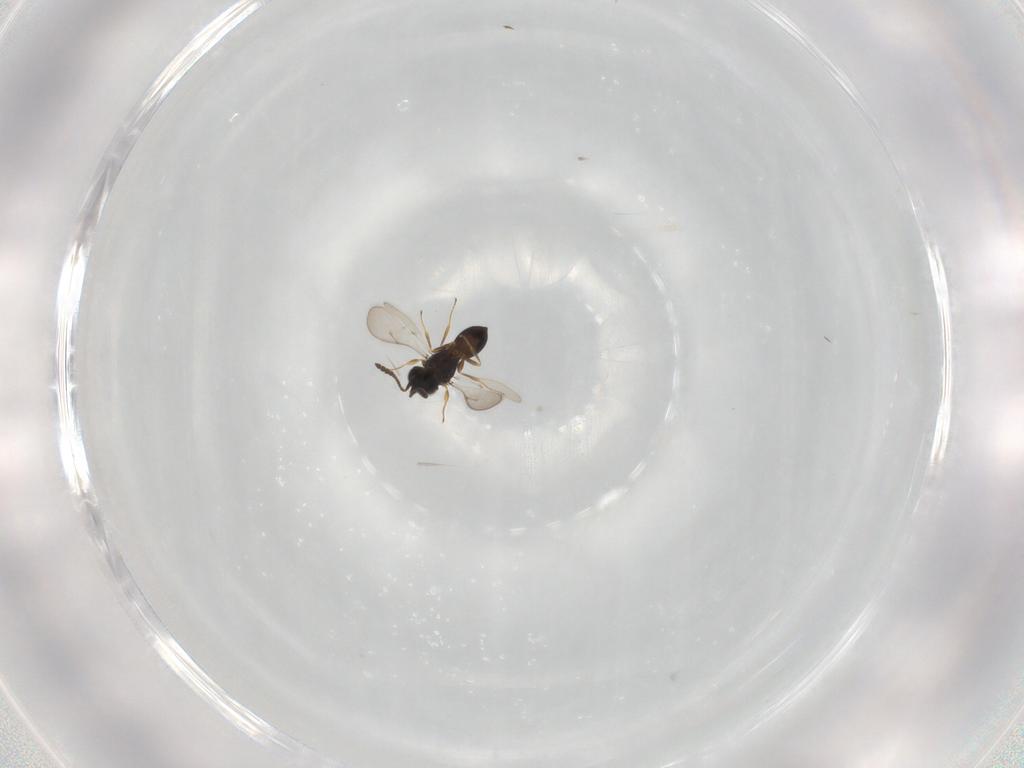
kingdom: Animalia
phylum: Arthropoda
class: Insecta
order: Hymenoptera
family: Scelionidae
